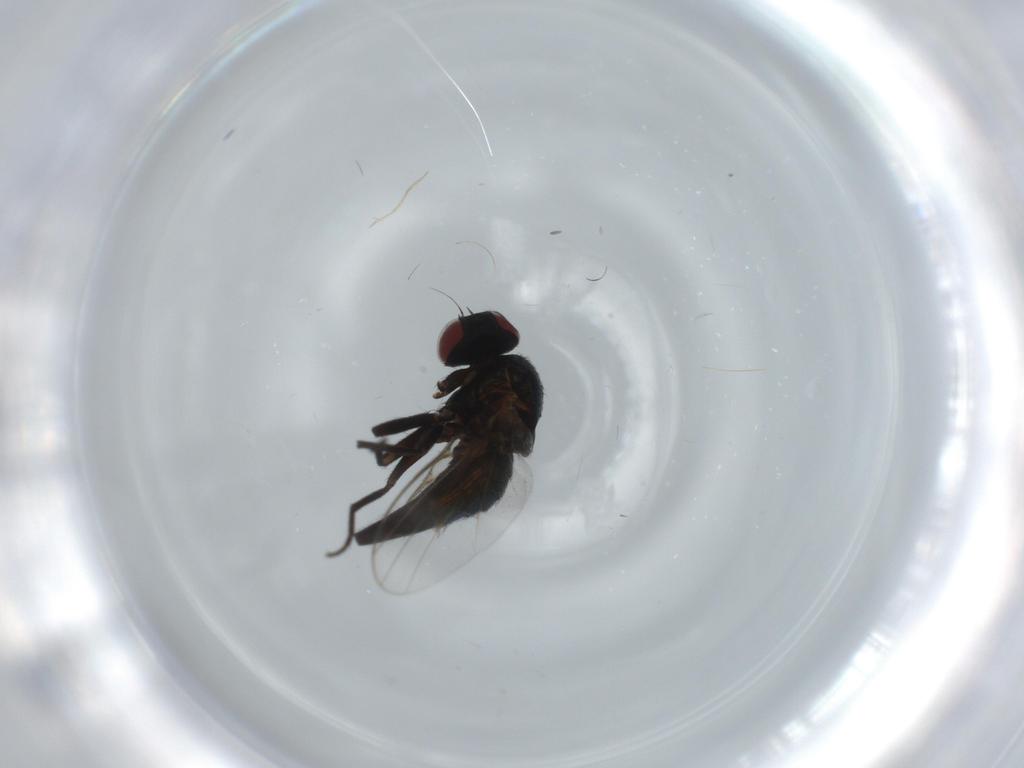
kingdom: Animalia
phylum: Arthropoda
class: Insecta
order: Diptera
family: Agromyzidae
